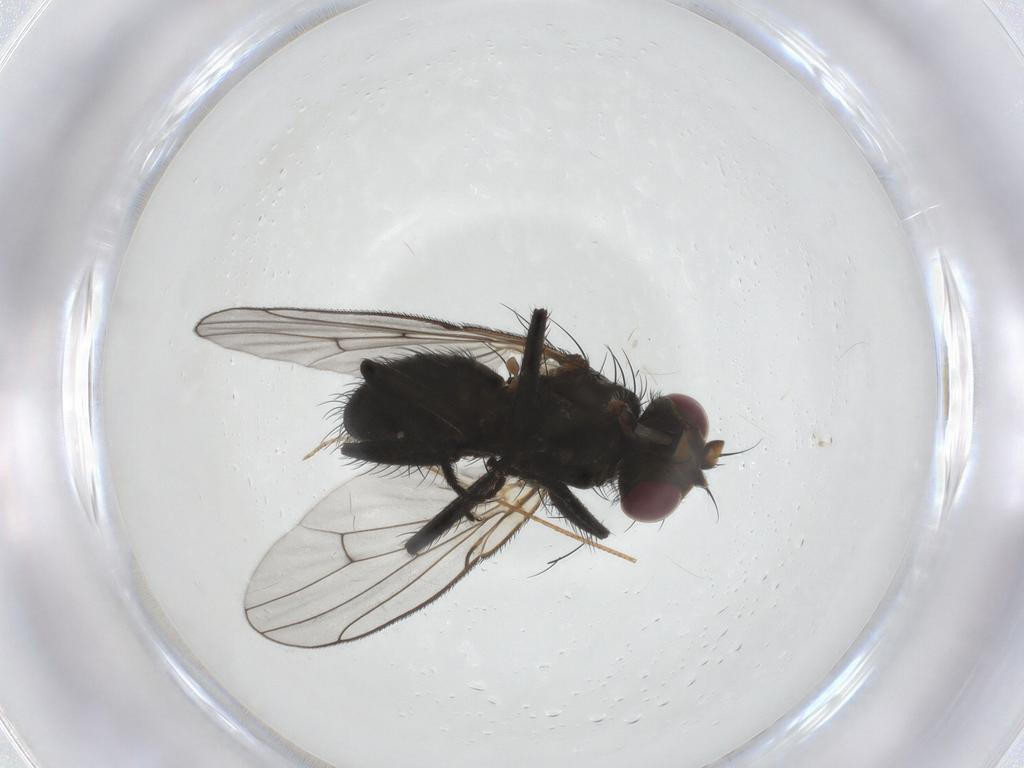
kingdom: Animalia
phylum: Arthropoda
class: Insecta
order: Diptera
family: Muscidae
